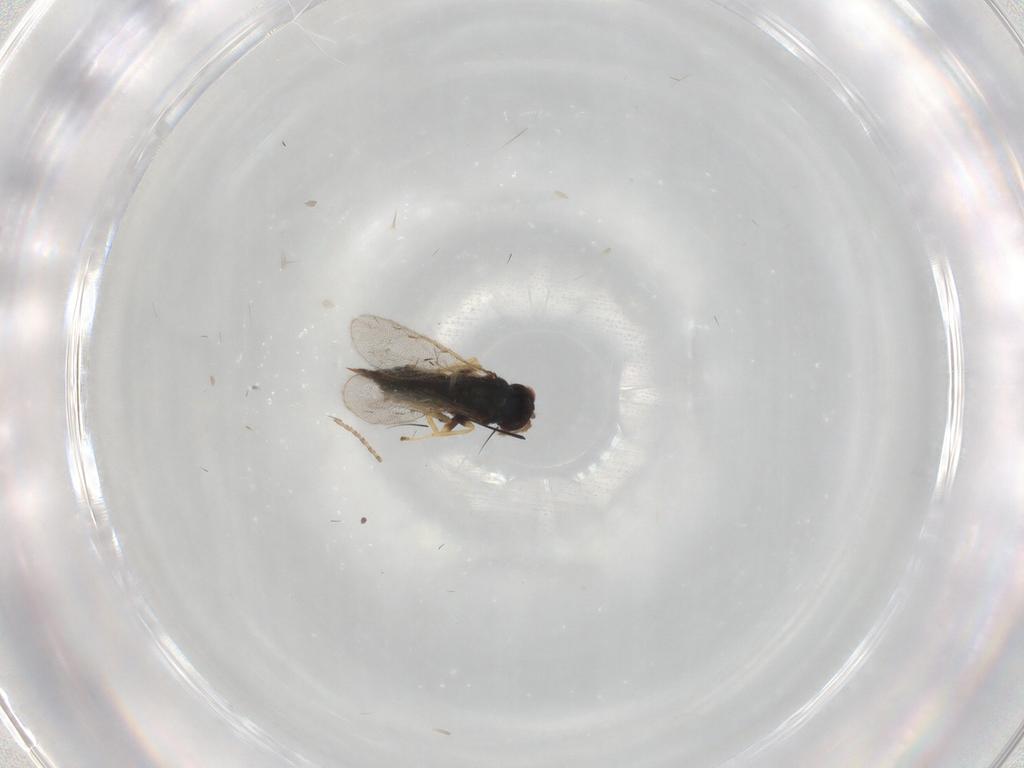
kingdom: Animalia
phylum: Arthropoda
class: Insecta
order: Hymenoptera
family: Eulophidae
